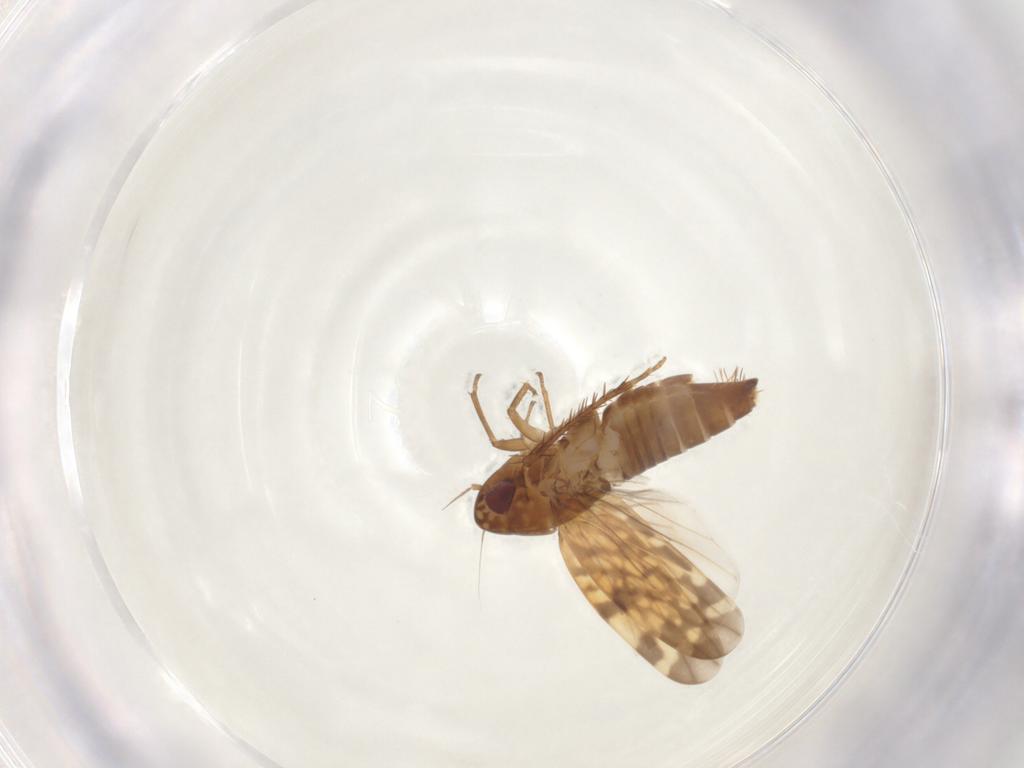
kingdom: Animalia
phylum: Arthropoda
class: Insecta
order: Hemiptera
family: Cicadellidae
